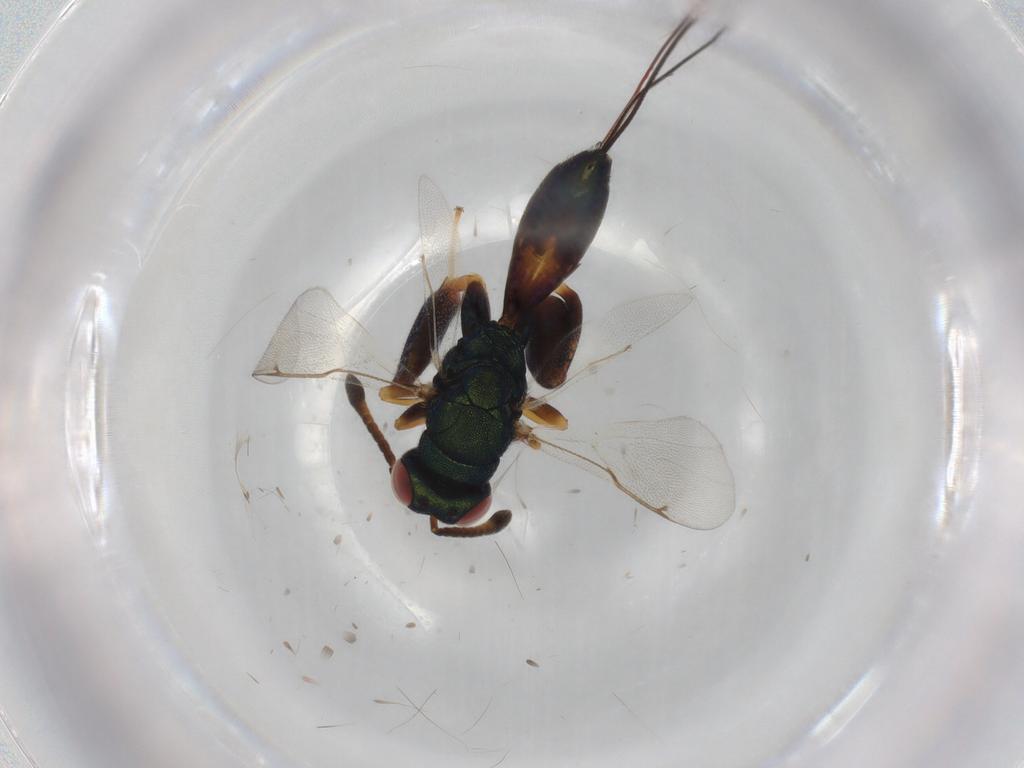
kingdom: Animalia
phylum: Arthropoda
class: Insecta
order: Hymenoptera
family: Torymidae
